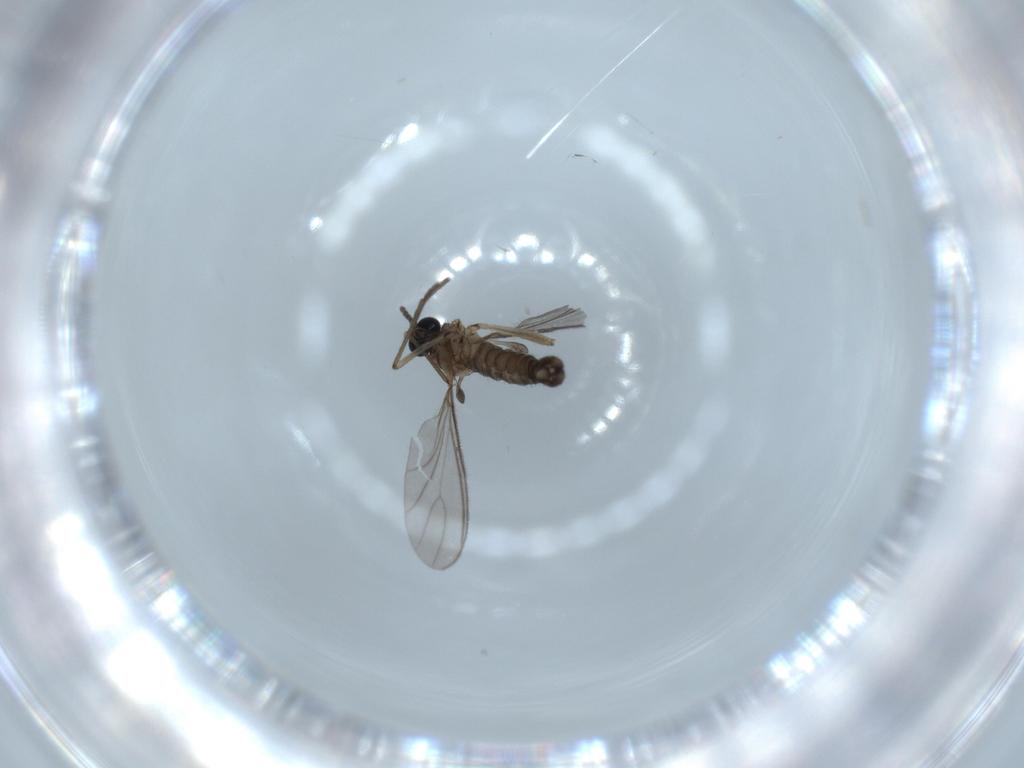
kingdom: Animalia
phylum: Arthropoda
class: Insecta
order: Diptera
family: Sciaridae
